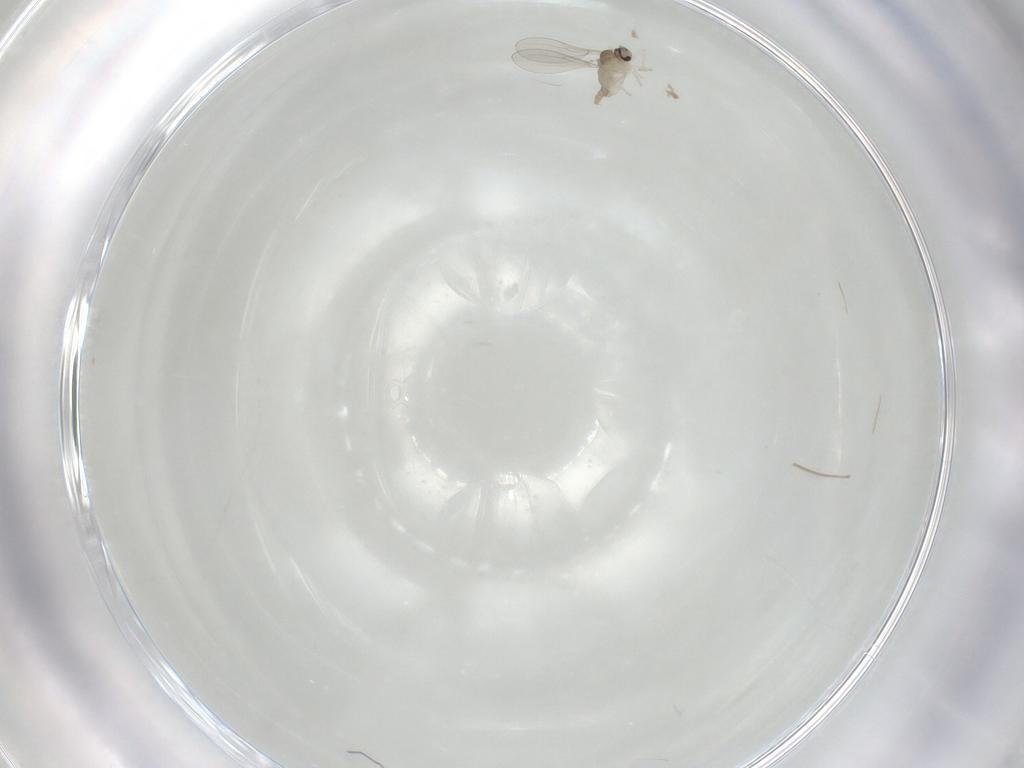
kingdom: Animalia
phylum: Arthropoda
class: Insecta
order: Diptera
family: Cecidomyiidae
